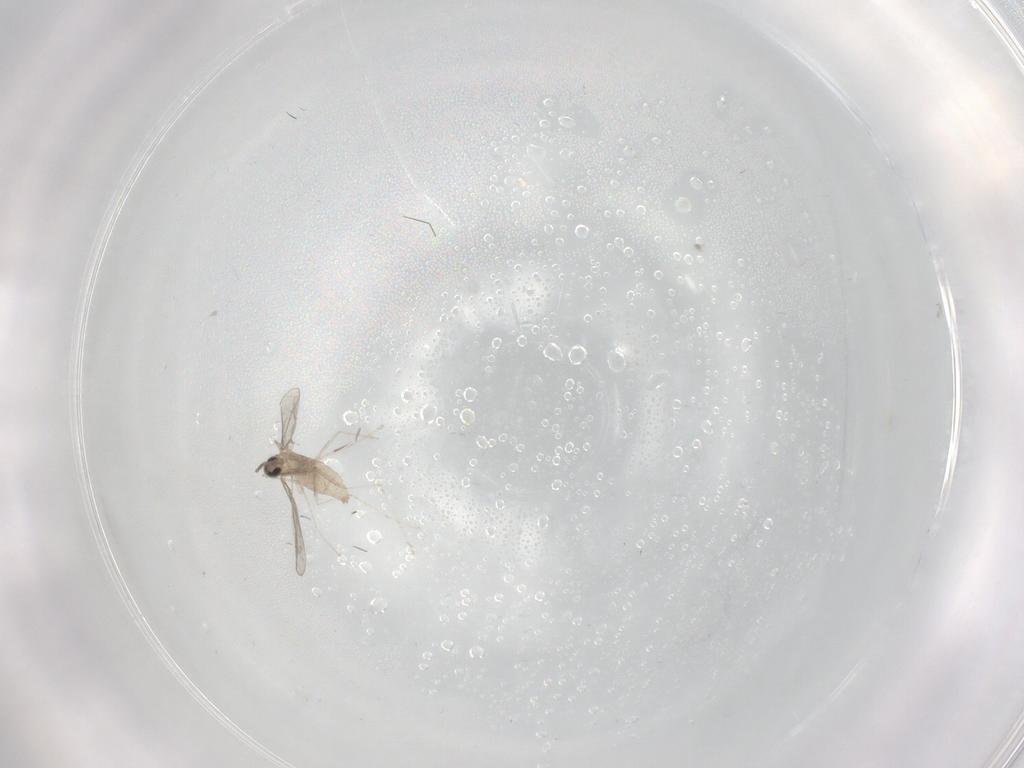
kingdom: Animalia
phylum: Arthropoda
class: Insecta
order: Diptera
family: Cecidomyiidae
